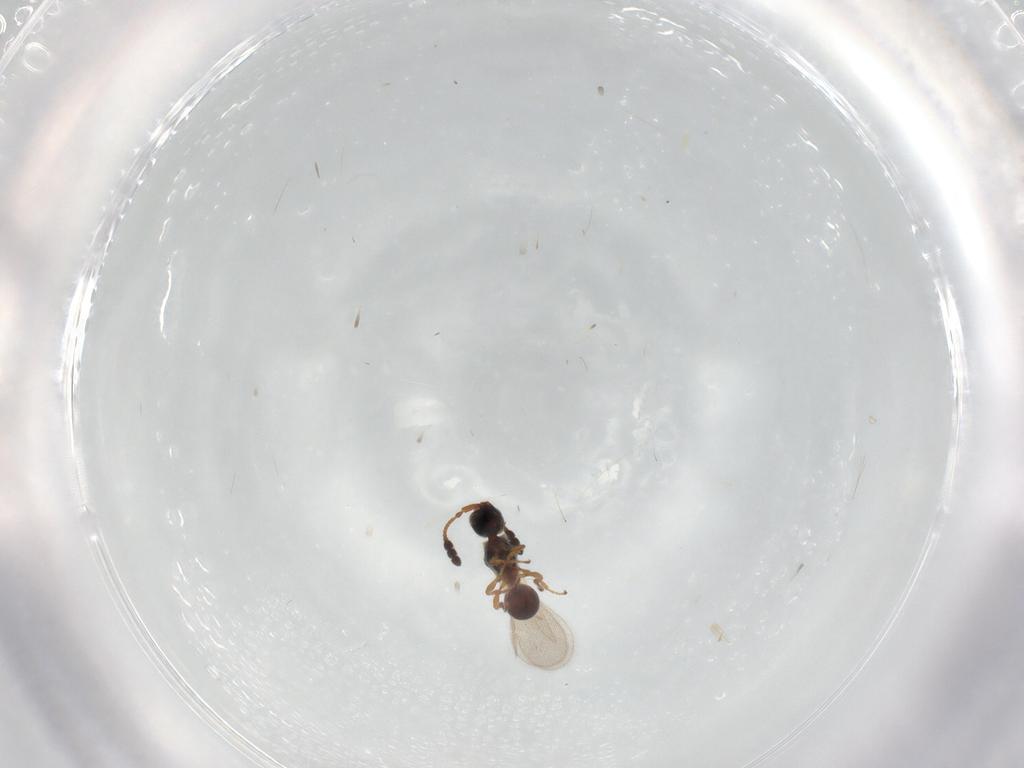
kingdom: Animalia
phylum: Arthropoda
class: Insecta
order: Hymenoptera
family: Diapriidae
